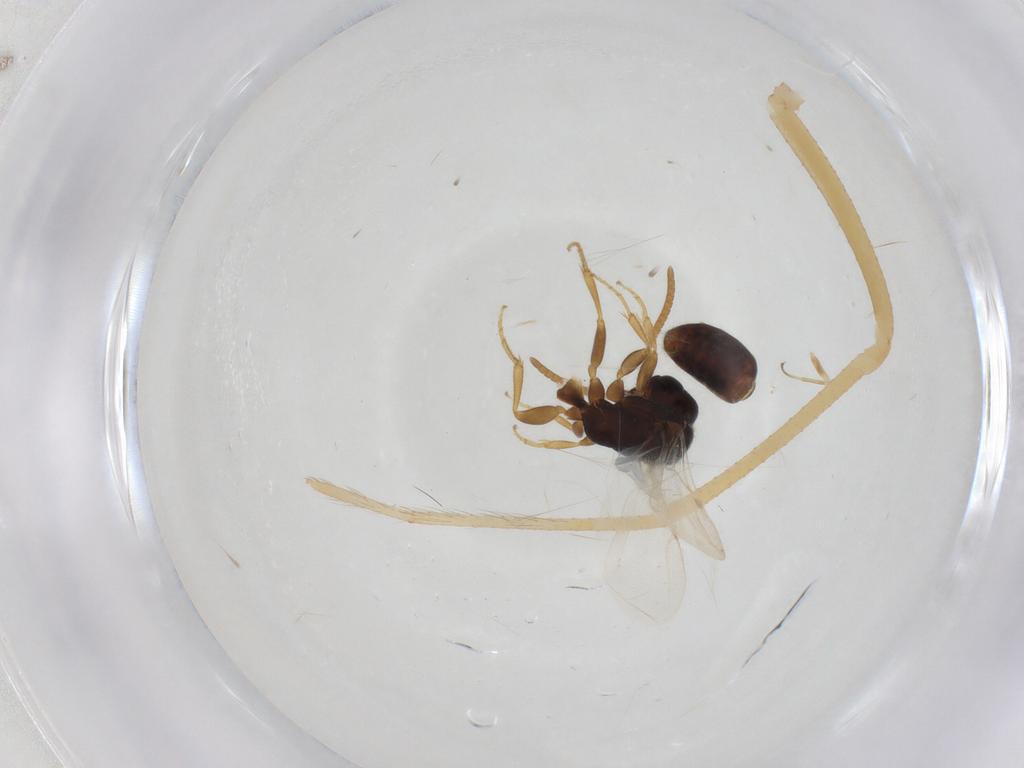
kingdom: Animalia
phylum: Arthropoda
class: Insecta
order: Hymenoptera
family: Bethylidae
